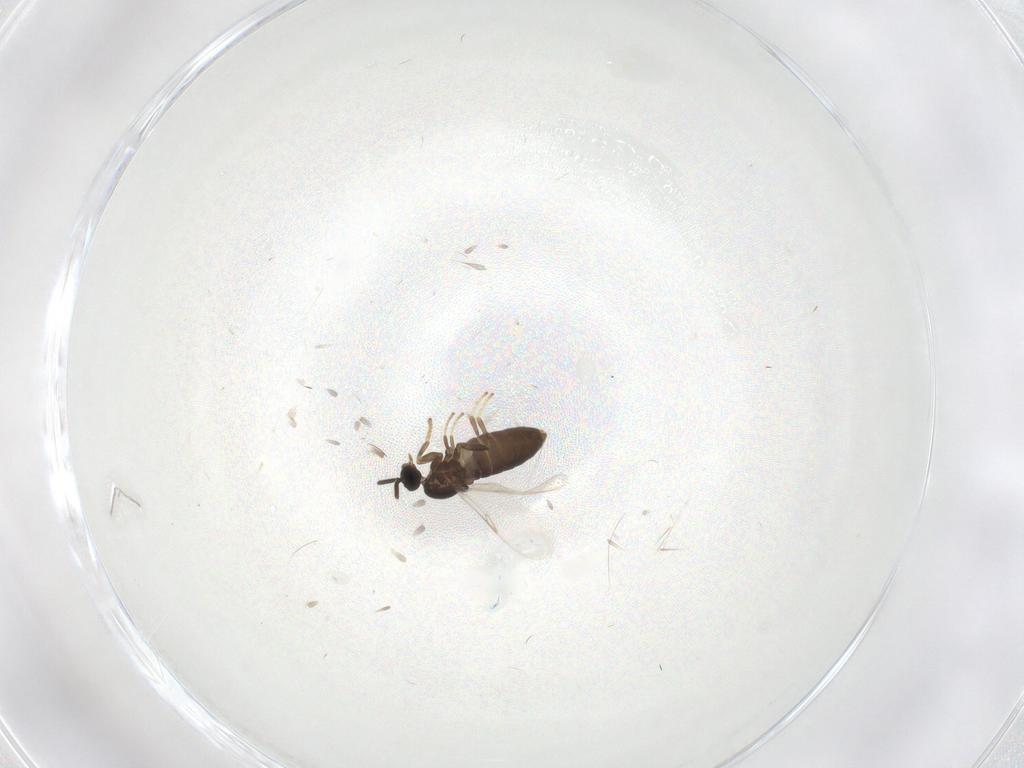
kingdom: Animalia
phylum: Arthropoda
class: Insecta
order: Diptera
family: Scatopsidae
